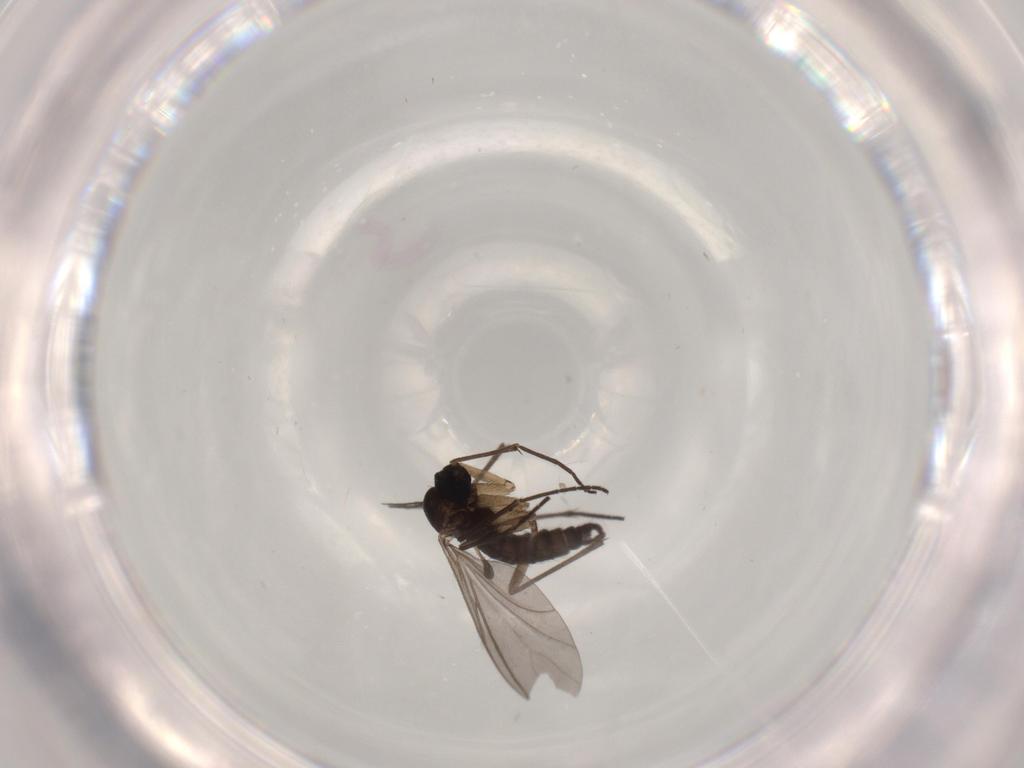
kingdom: Animalia
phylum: Arthropoda
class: Insecta
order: Diptera
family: Sciaridae
